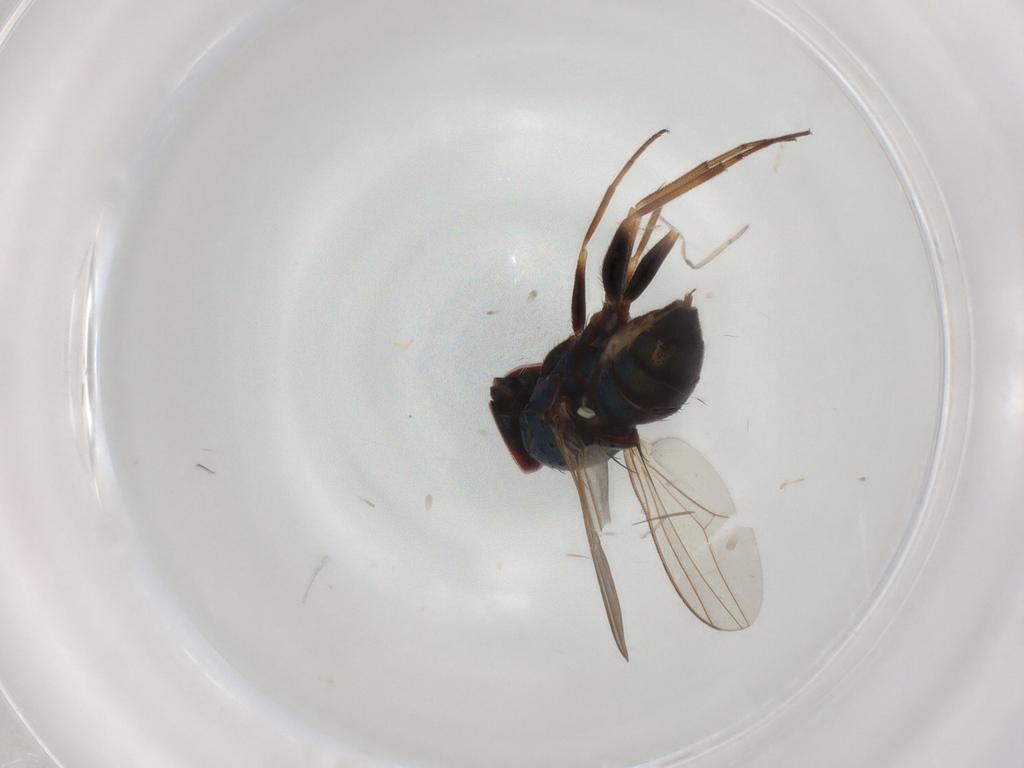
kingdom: Animalia
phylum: Arthropoda
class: Insecta
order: Diptera
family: Dolichopodidae
